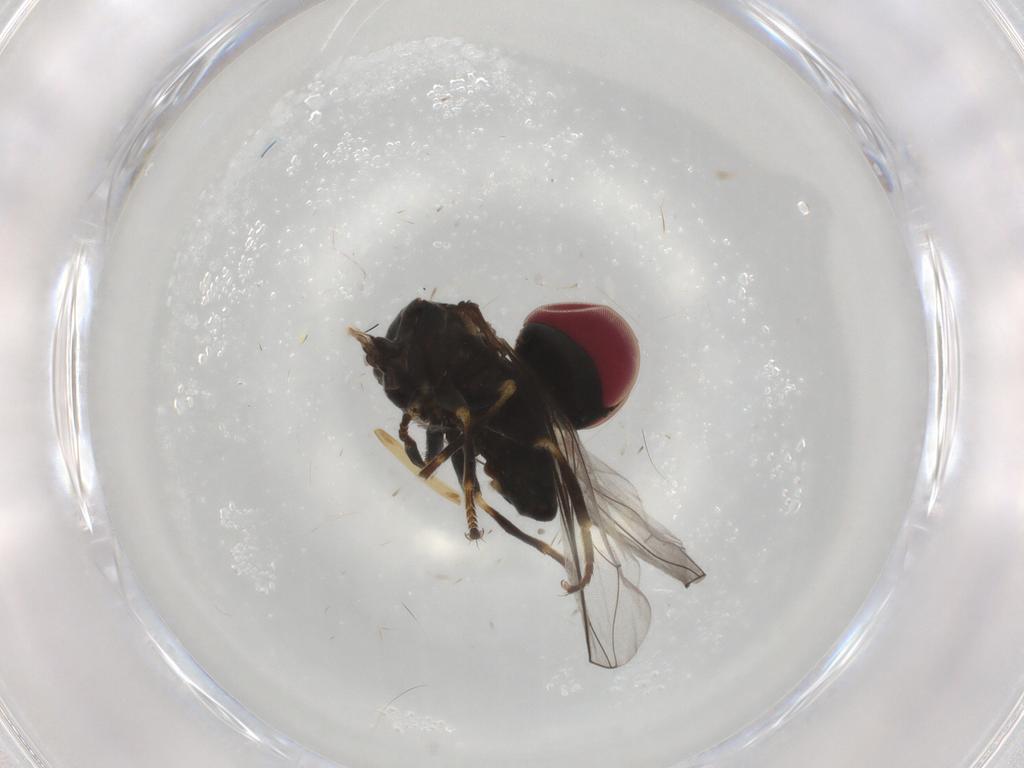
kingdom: Animalia
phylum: Arthropoda
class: Insecta
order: Diptera
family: Pipunculidae
